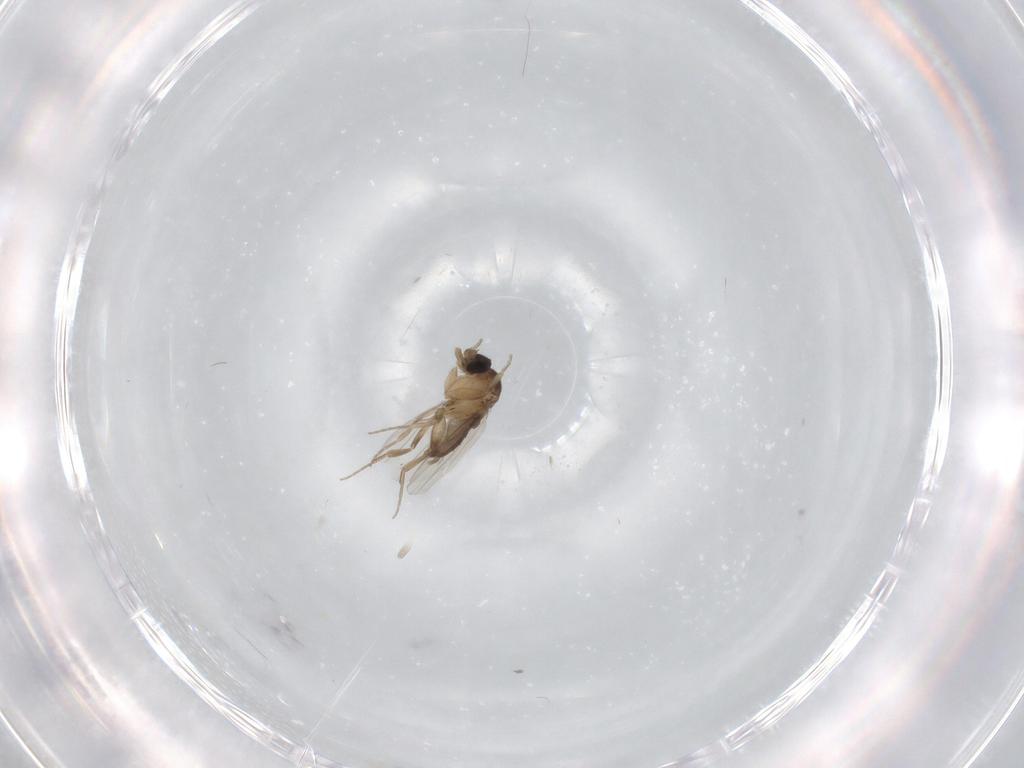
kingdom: Animalia
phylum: Arthropoda
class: Insecta
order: Diptera
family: Phoridae
